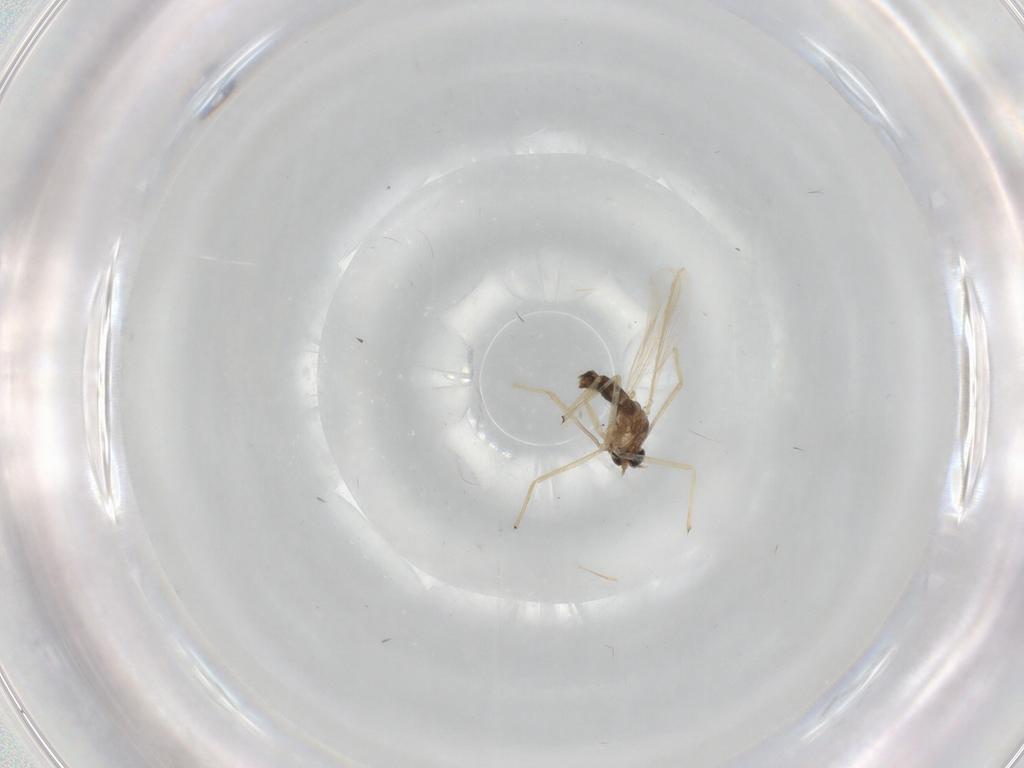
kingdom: Animalia
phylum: Arthropoda
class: Insecta
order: Diptera
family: Chironomidae
